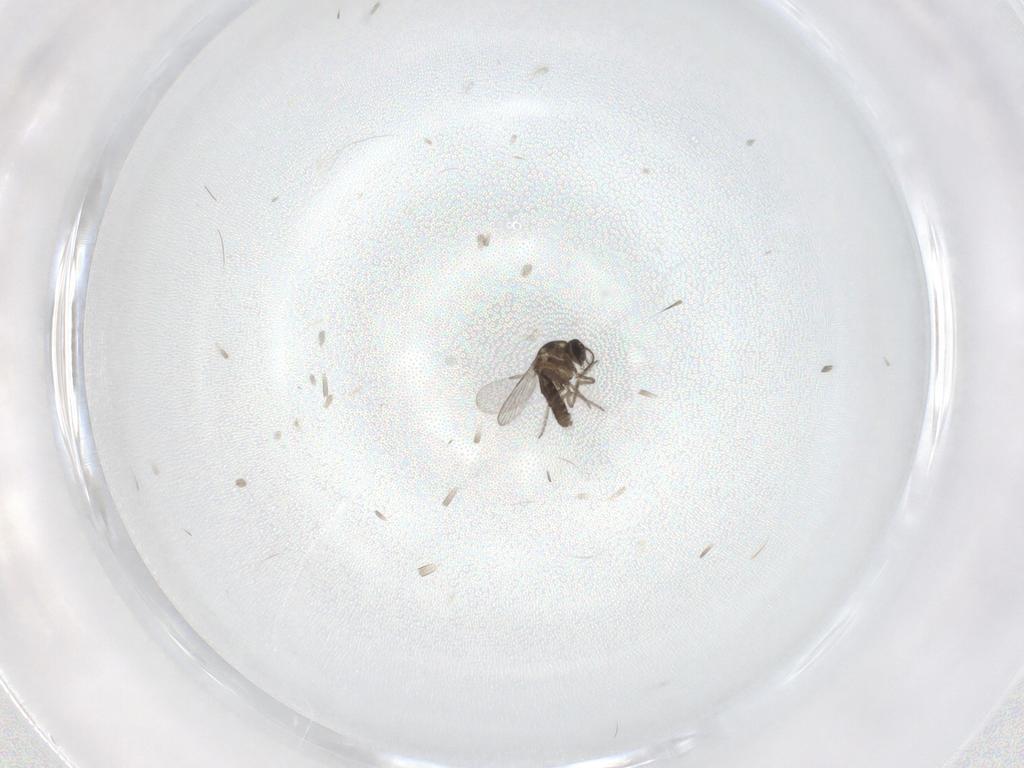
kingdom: Animalia
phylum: Arthropoda
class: Insecta
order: Diptera
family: Ceratopogonidae
